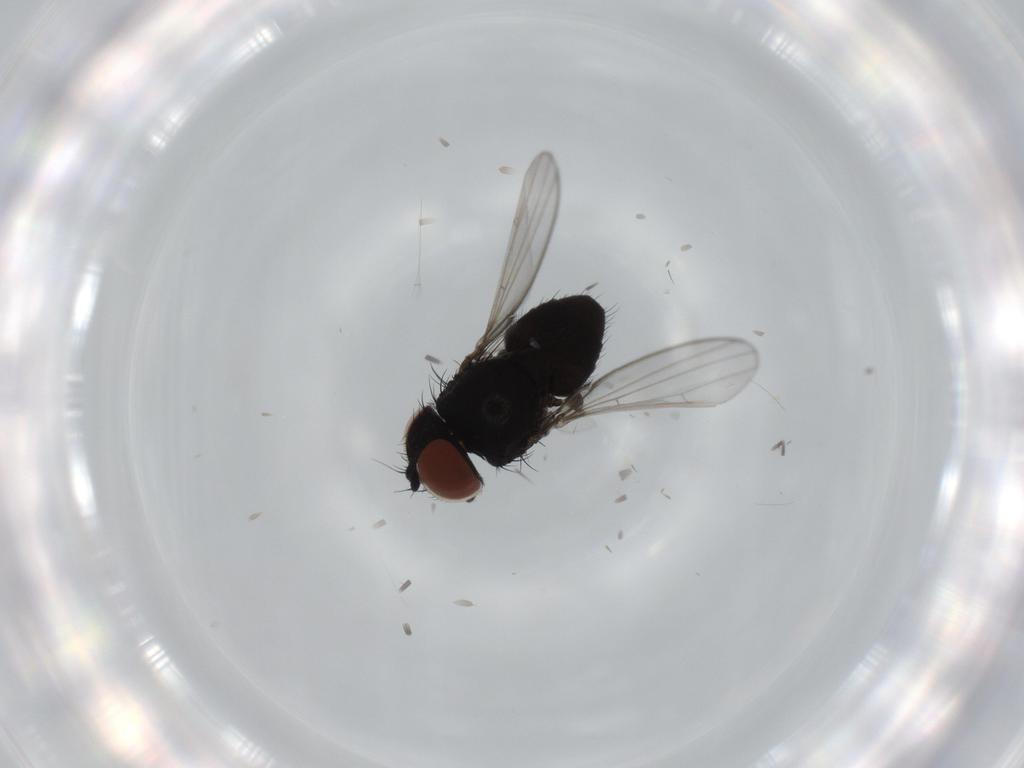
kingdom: Animalia
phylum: Arthropoda
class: Insecta
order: Diptera
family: Milichiidae
